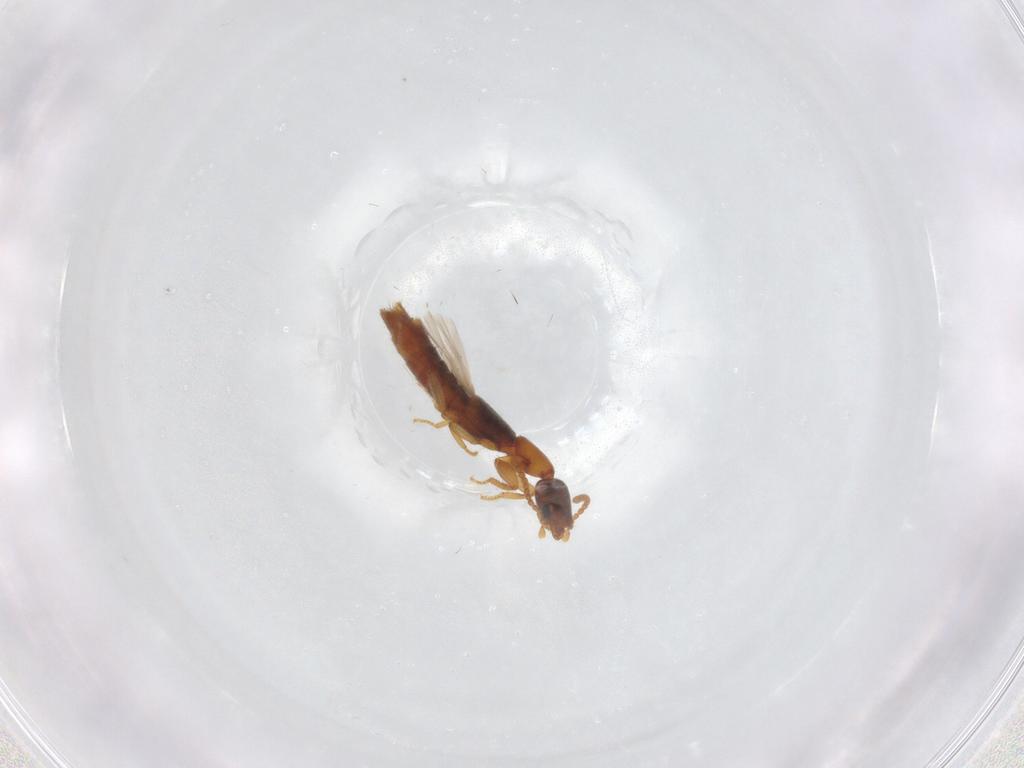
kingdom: Animalia
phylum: Arthropoda
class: Insecta
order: Coleoptera
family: Staphylinidae
